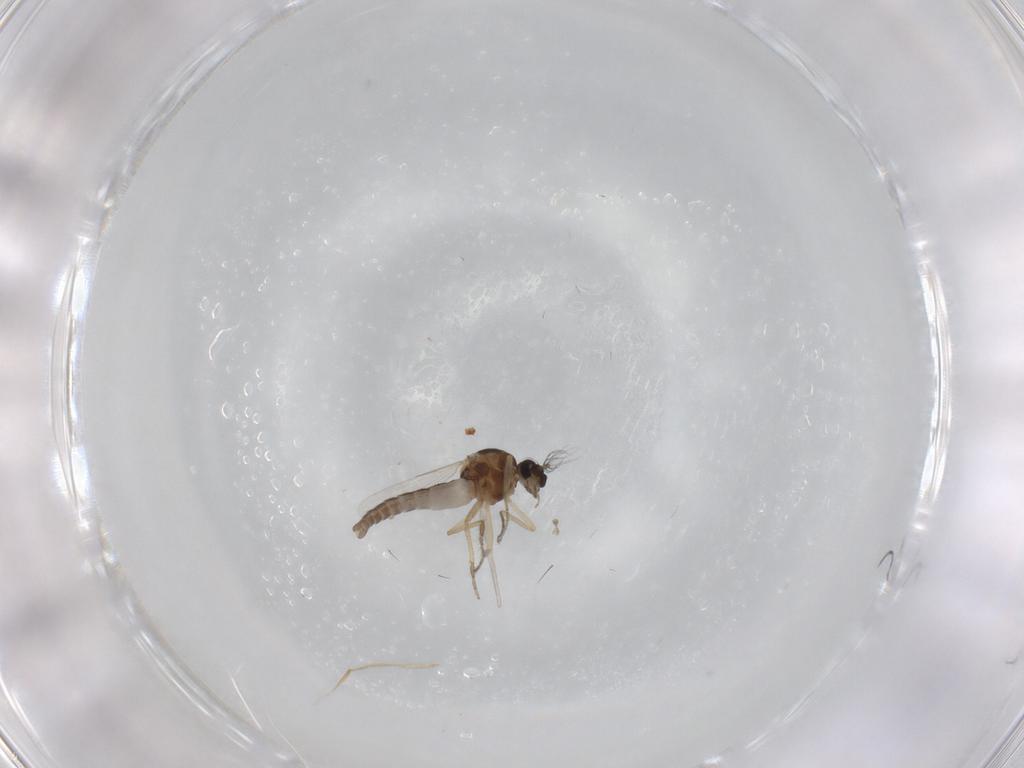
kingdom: Animalia
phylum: Arthropoda
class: Insecta
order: Diptera
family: Ceratopogonidae
